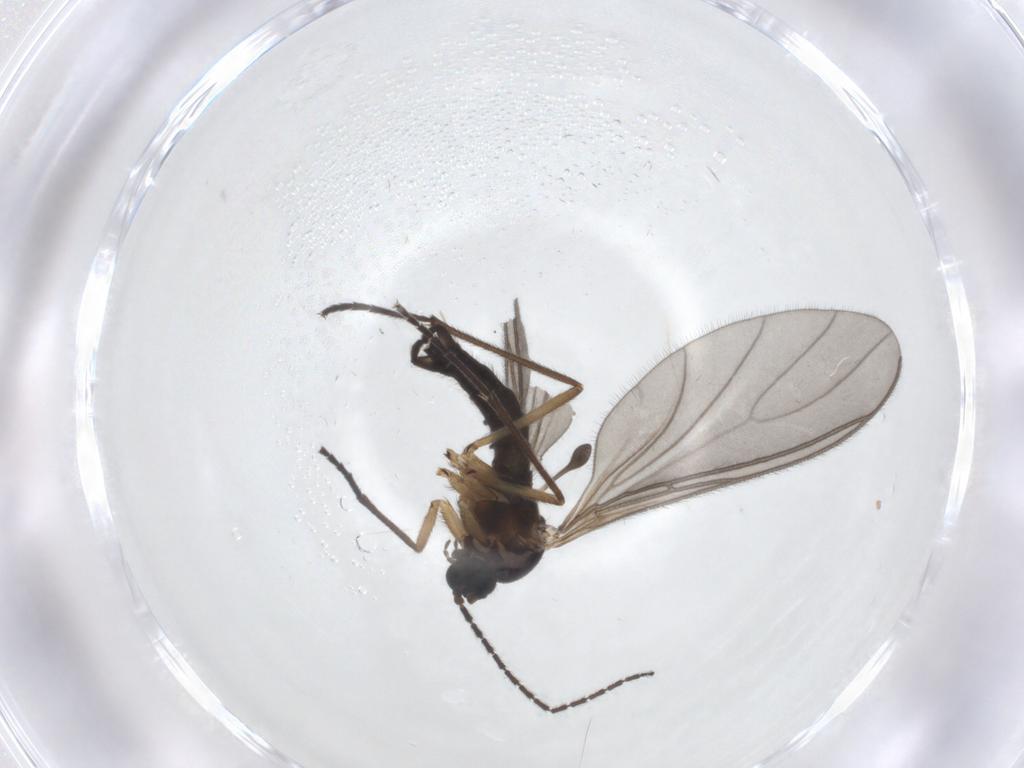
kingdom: Animalia
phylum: Arthropoda
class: Insecta
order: Diptera
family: Sciaridae
